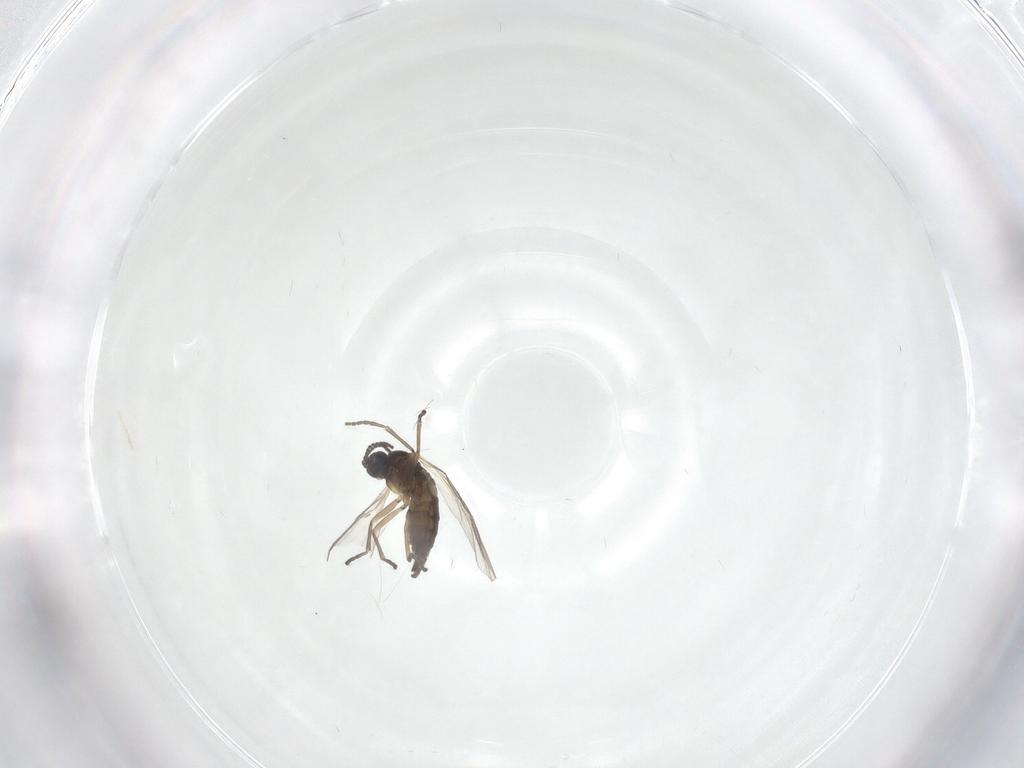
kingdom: Animalia
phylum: Arthropoda
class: Insecta
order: Diptera
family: Sciaridae
